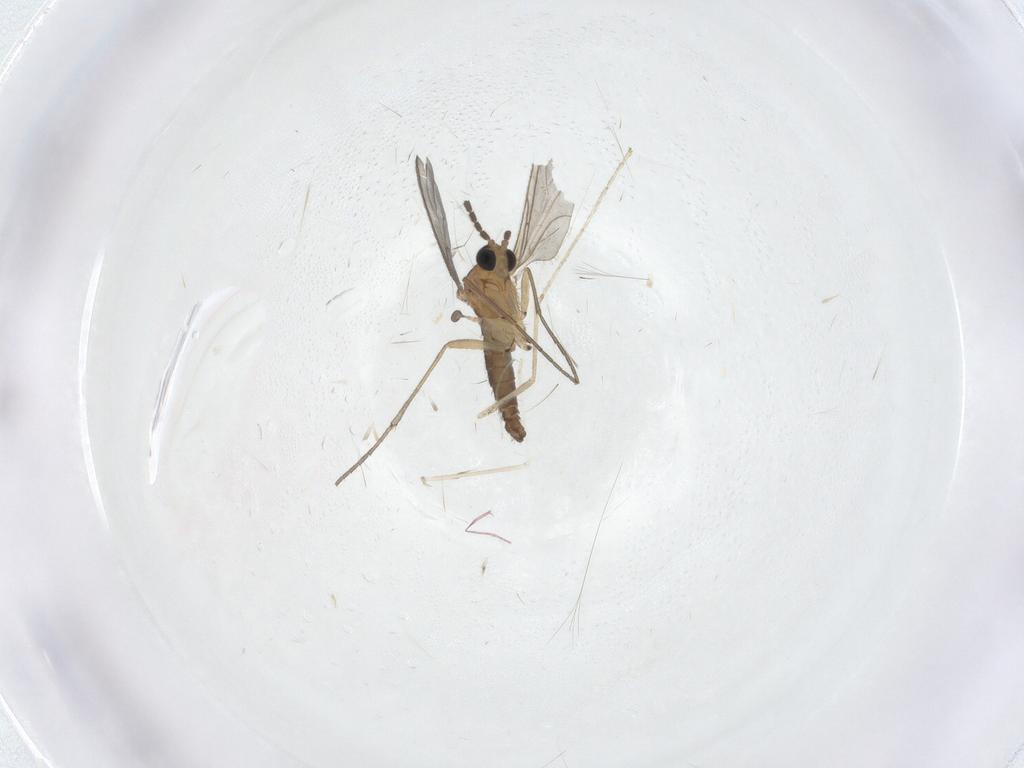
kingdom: Animalia
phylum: Arthropoda
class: Insecta
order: Diptera
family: Sciaridae
